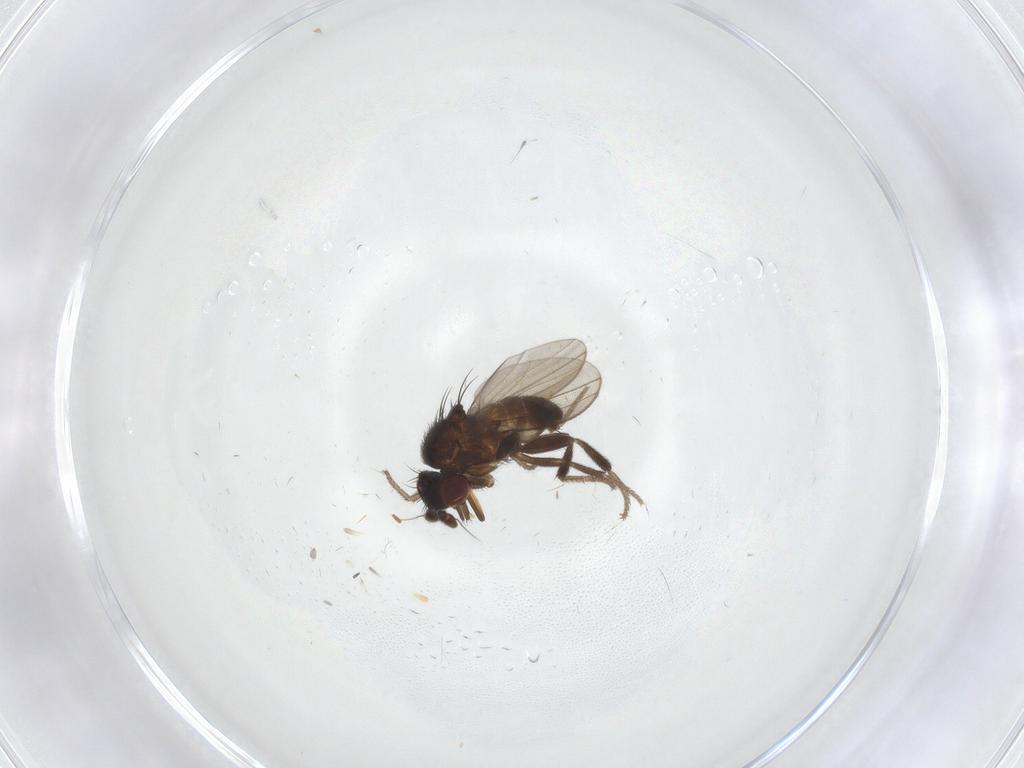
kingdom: Animalia
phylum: Arthropoda
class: Insecta
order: Diptera
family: Milichiidae
